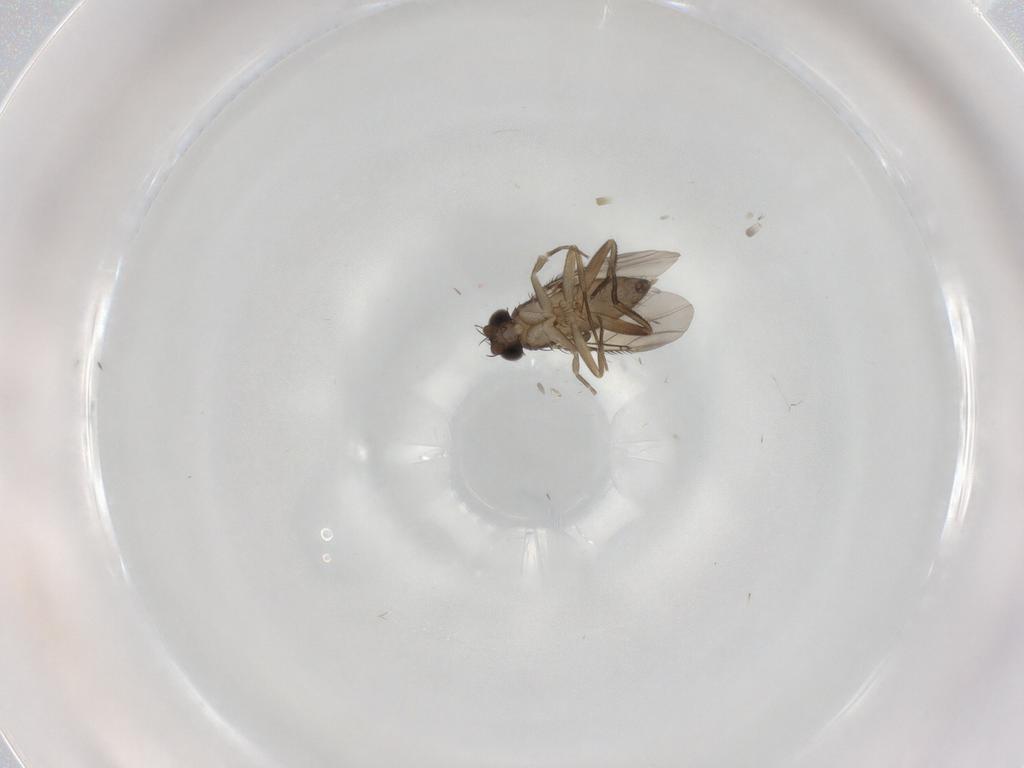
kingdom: Animalia
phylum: Arthropoda
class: Insecta
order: Diptera
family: Phoridae
